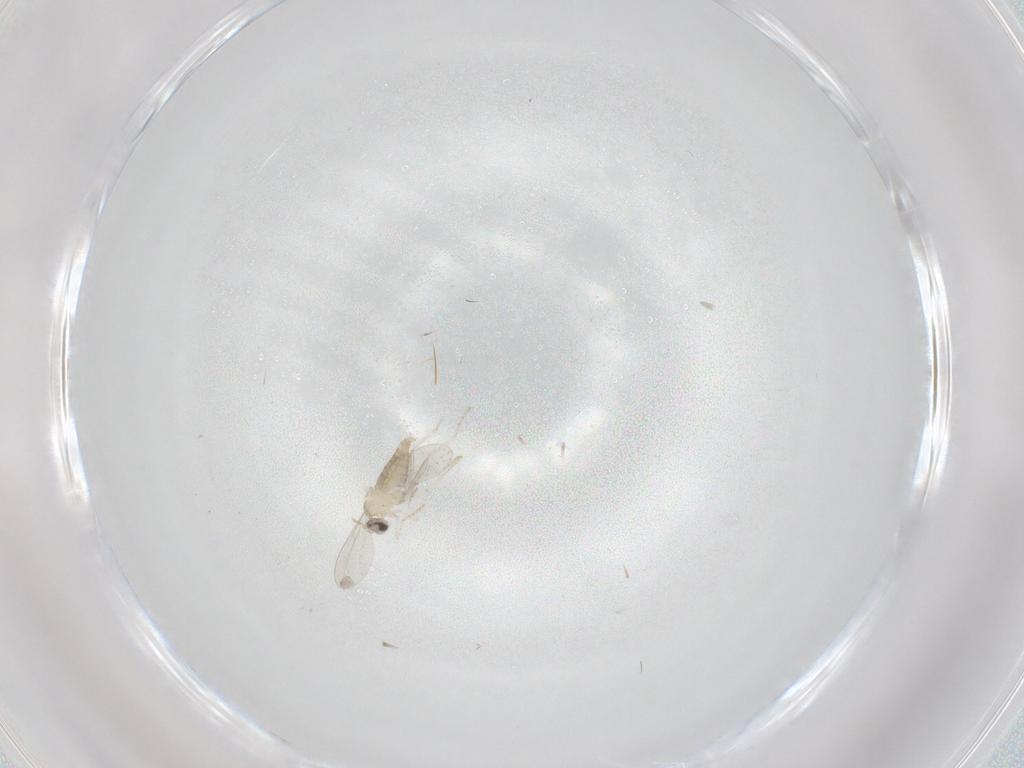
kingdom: Animalia
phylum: Arthropoda
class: Insecta
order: Diptera
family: Cecidomyiidae
